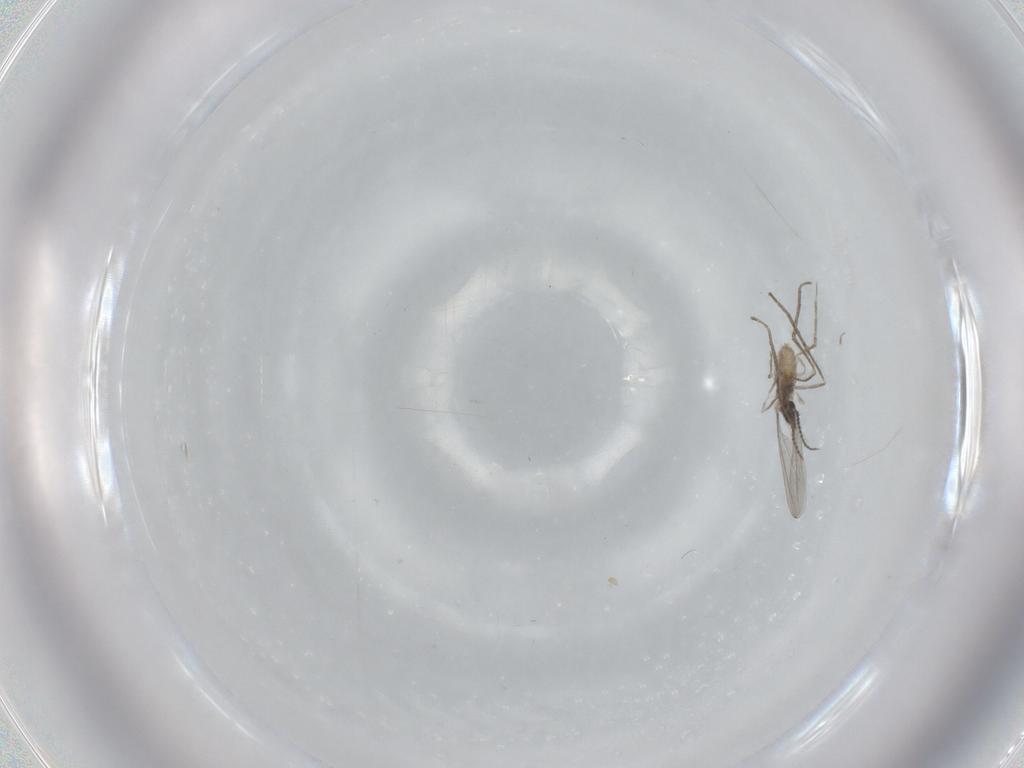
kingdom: Animalia
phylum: Arthropoda
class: Insecta
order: Diptera
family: Cecidomyiidae
